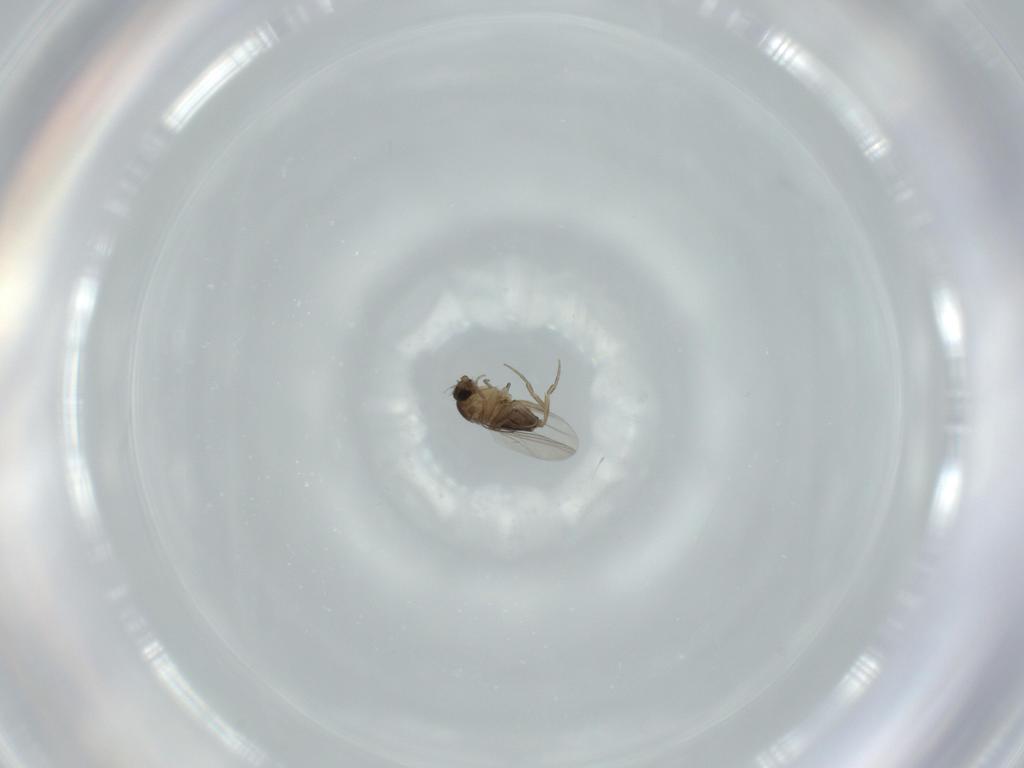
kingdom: Animalia
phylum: Arthropoda
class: Insecta
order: Diptera
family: Phoridae
